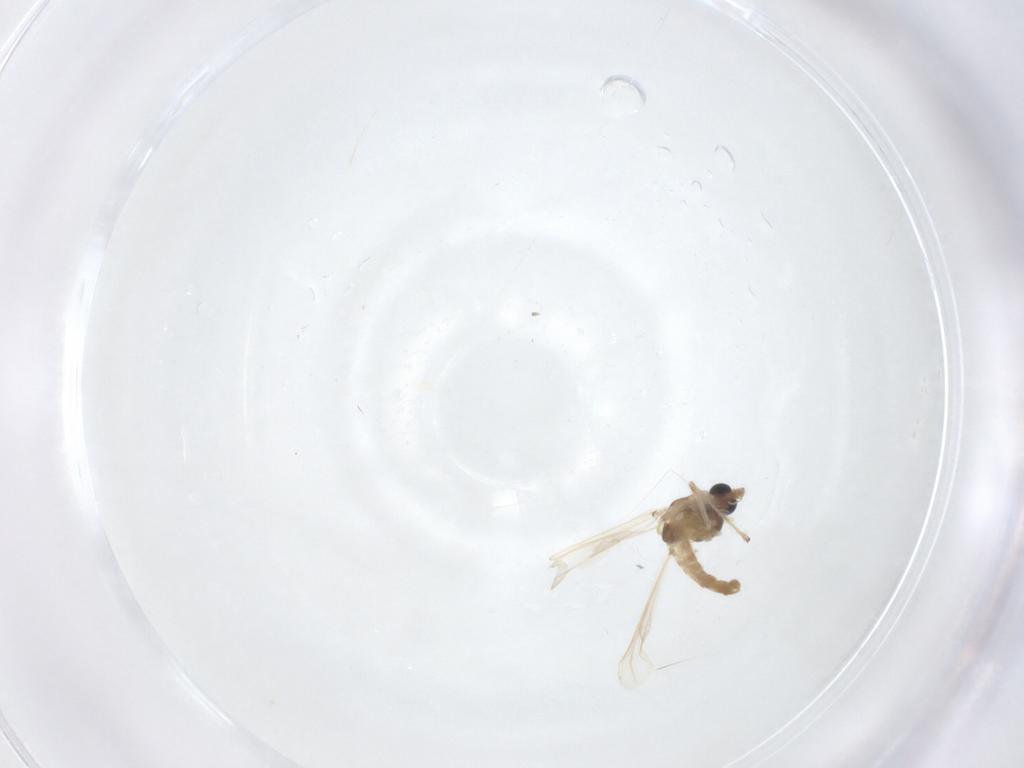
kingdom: Animalia
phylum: Arthropoda
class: Insecta
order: Diptera
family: Chironomidae
